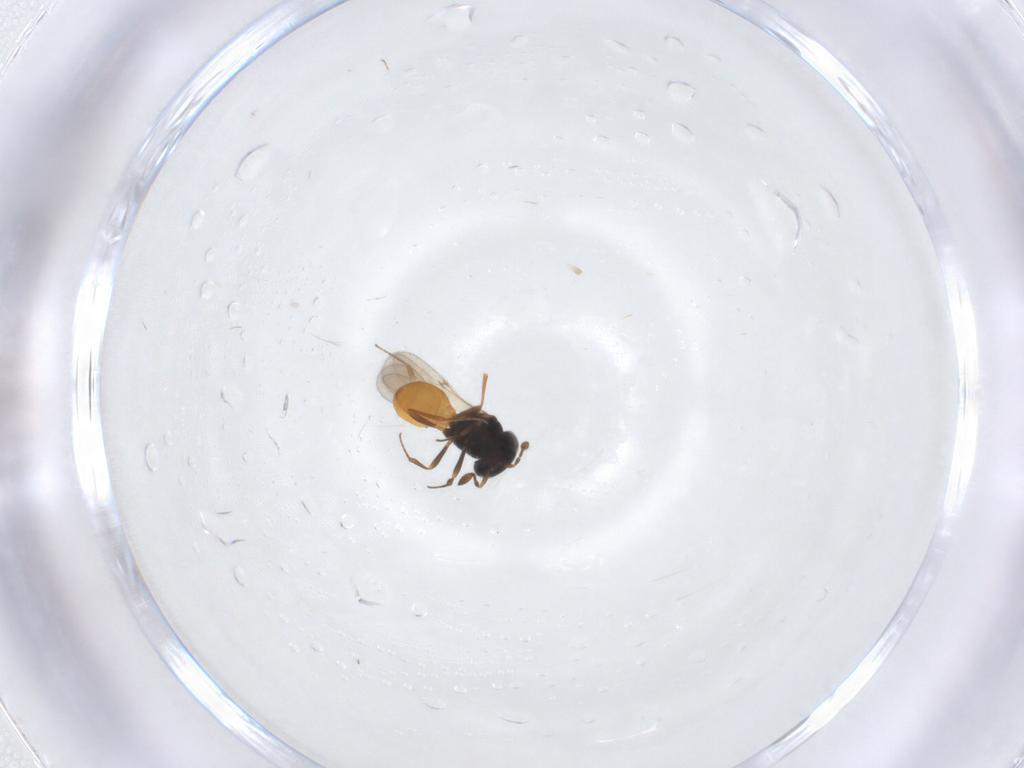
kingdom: Animalia
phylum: Arthropoda
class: Insecta
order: Hymenoptera
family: Scelionidae
